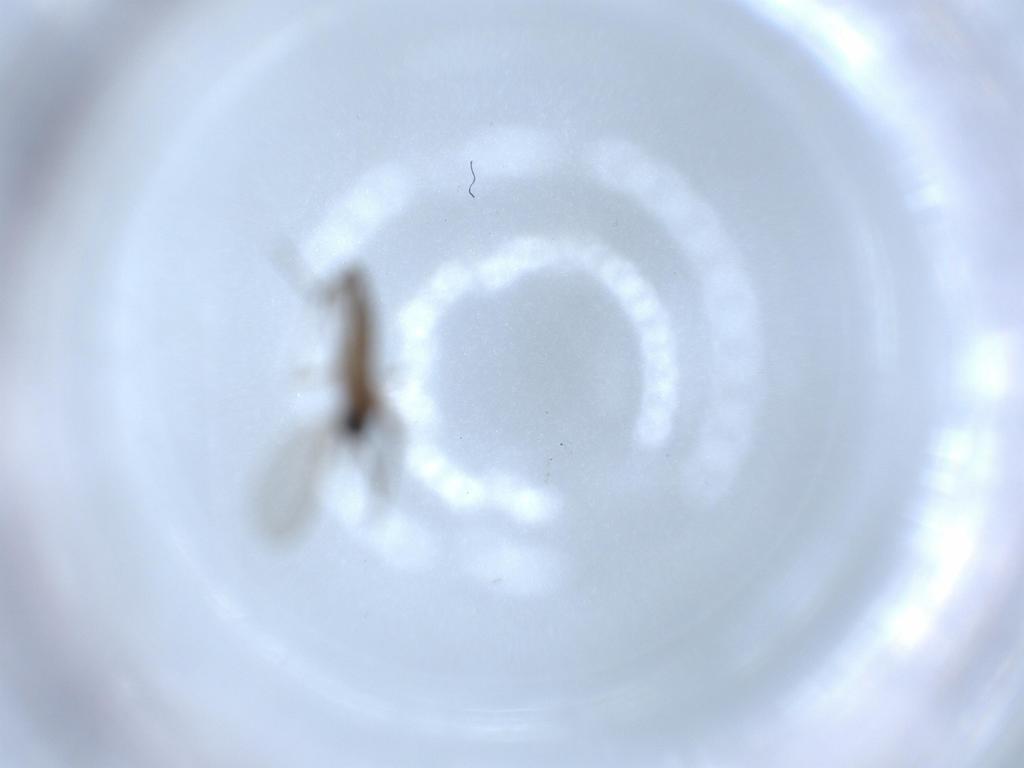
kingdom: Animalia
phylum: Arthropoda
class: Insecta
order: Diptera
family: Sciaridae
